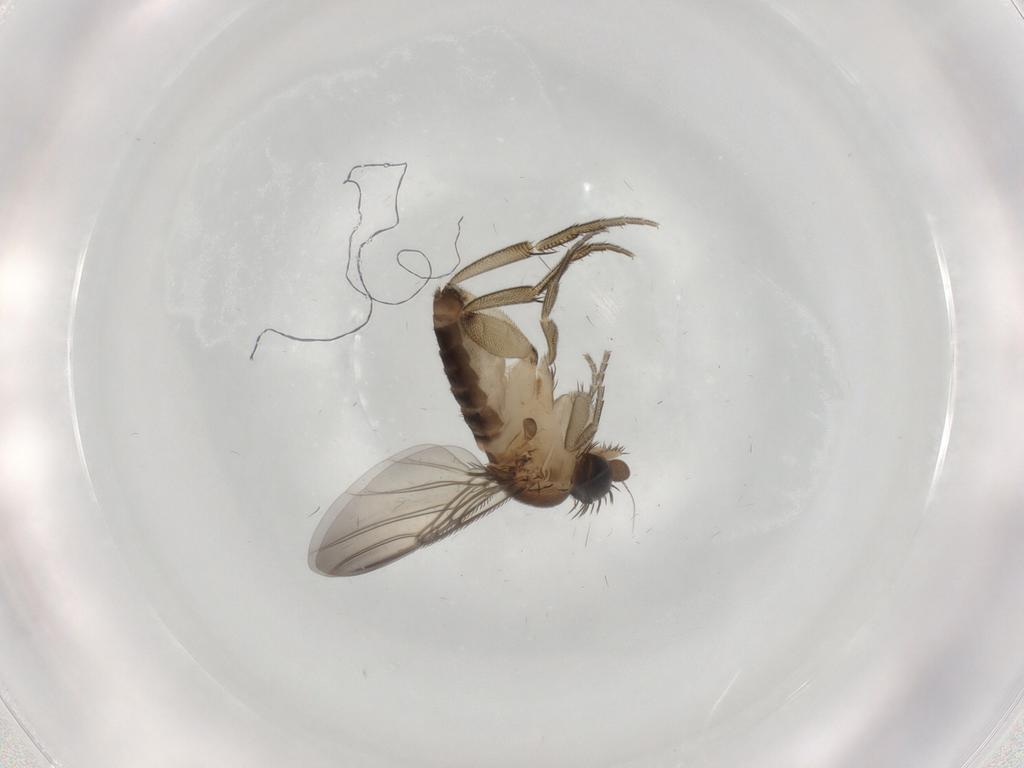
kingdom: Animalia
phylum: Arthropoda
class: Insecta
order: Diptera
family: Phoridae
